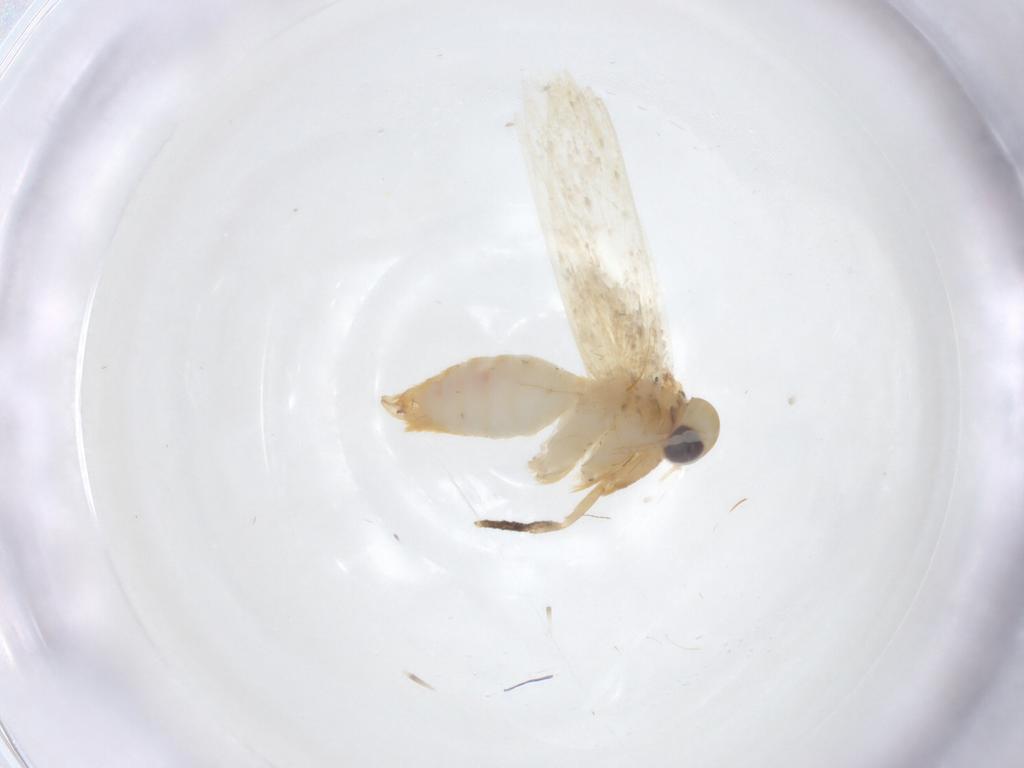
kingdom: Animalia
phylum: Arthropoda
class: Insecta
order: Lepidoptera
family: Oecophoridae
